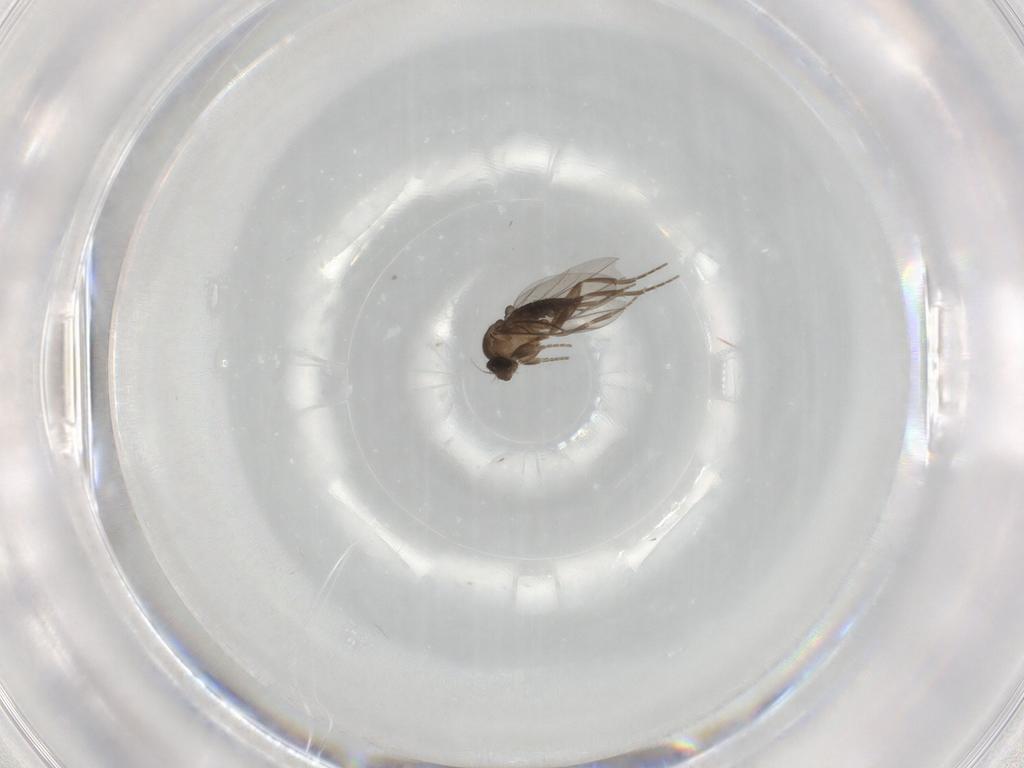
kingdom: Animalia
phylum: Arthropoda
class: Insecta
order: Diptera
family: Phoridae
